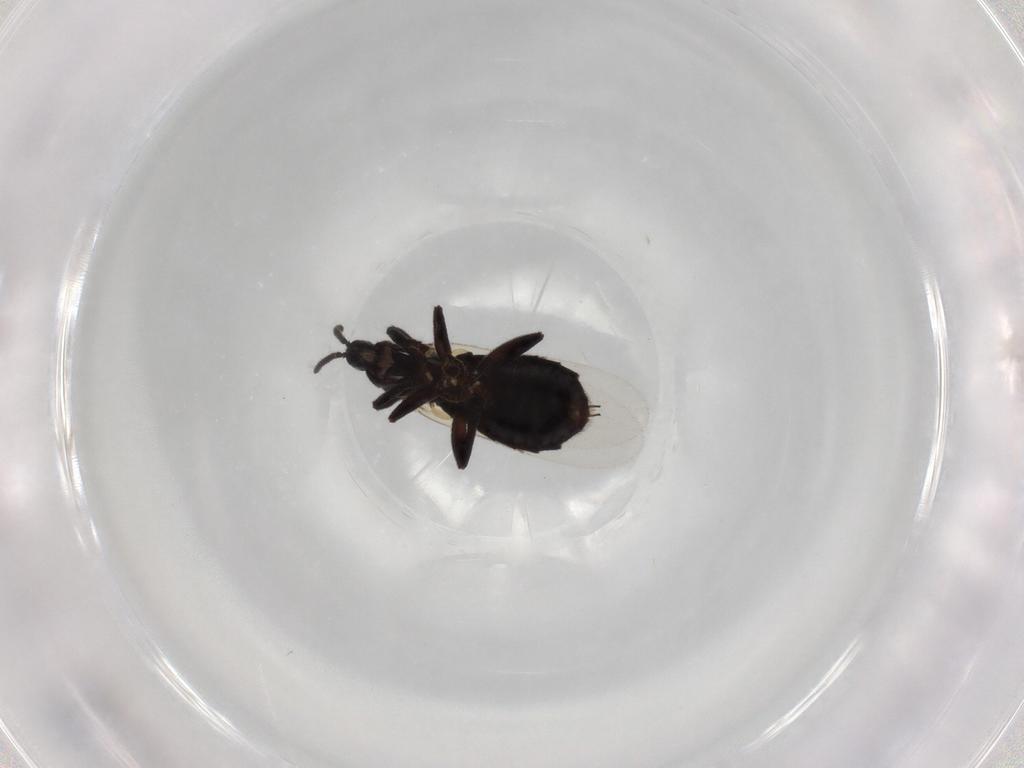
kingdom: Animalia
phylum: Arthropoda
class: Insecta
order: Diptera
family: Scatopsidae
